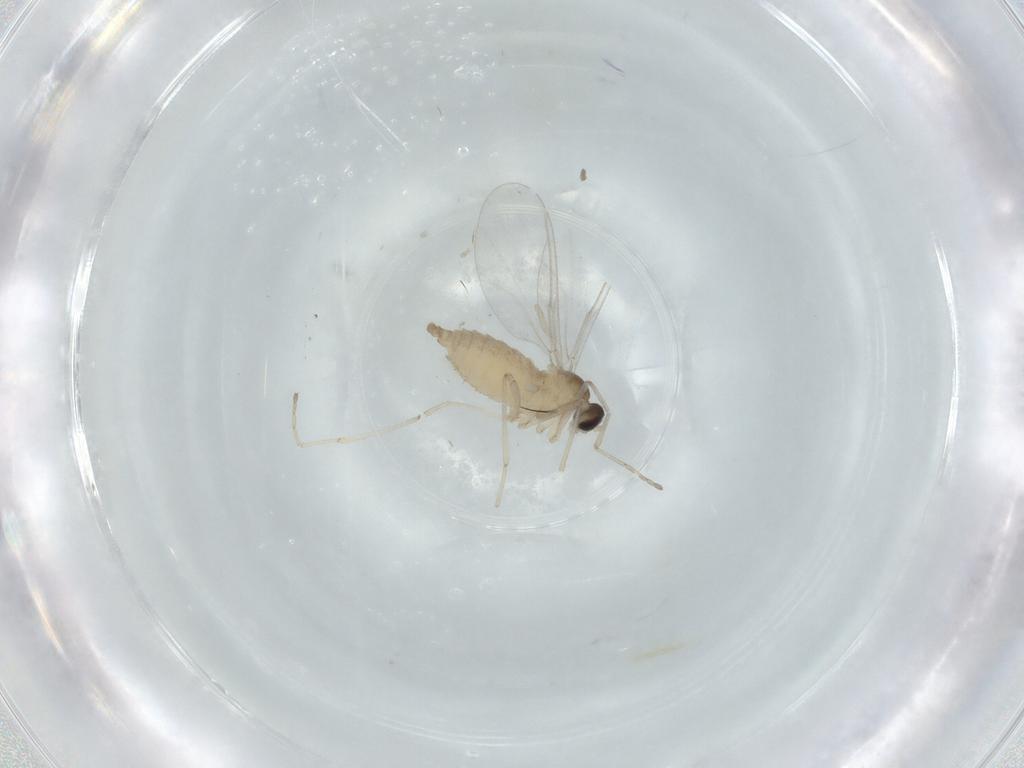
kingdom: Animalia
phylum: Arthropoda
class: Insecta
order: Diptera
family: Cecidomyiidae
